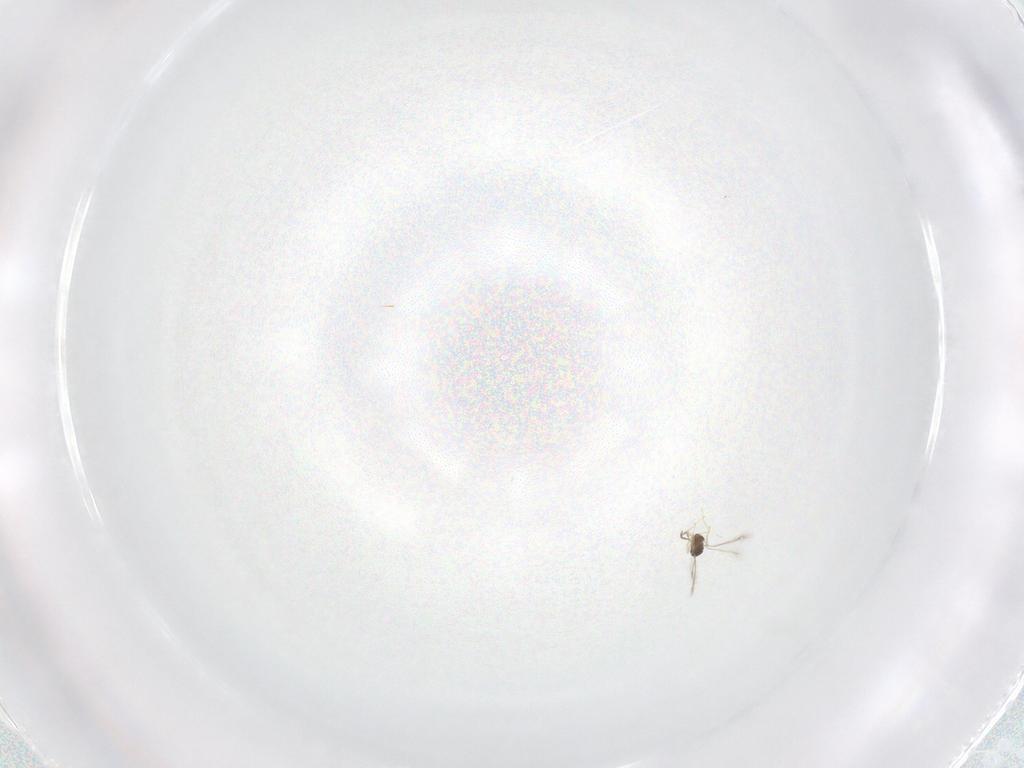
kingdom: Animalia
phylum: Arthropoda
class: Insecta
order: Hymenoptera
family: Mymaridae
